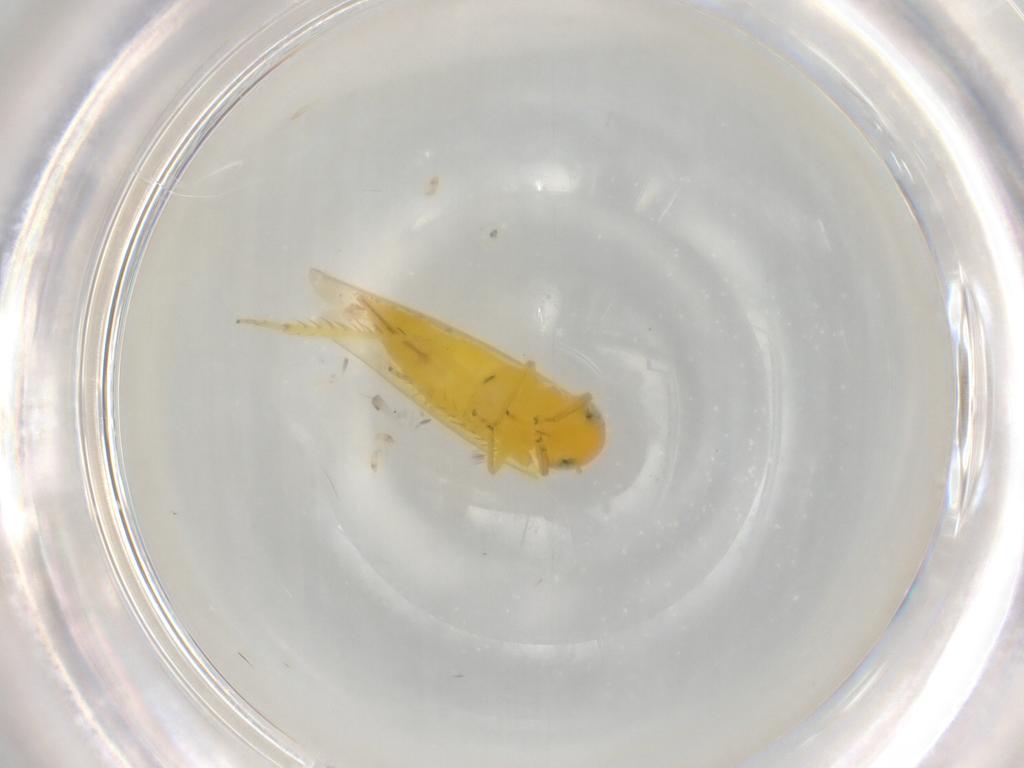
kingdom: Animalia
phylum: Arthropoda
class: Insecta
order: Hemiptera
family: Cicadellidae
